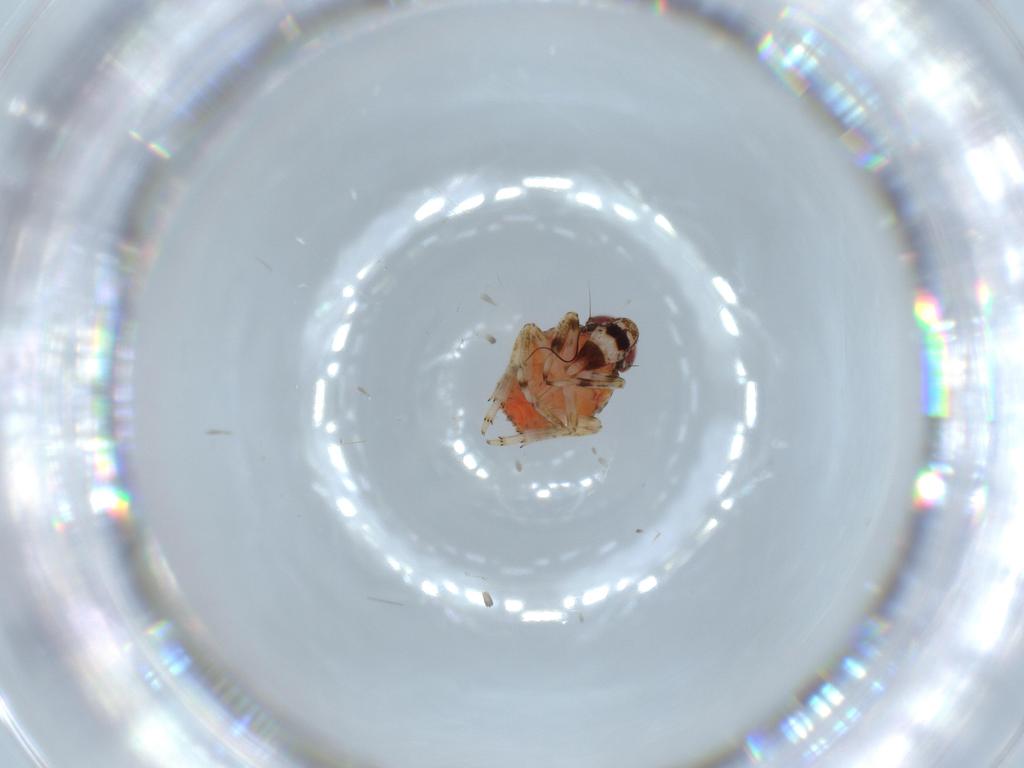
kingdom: Animalia
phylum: Arthropoda
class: Insecta
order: Hemiptera
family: Issidae
